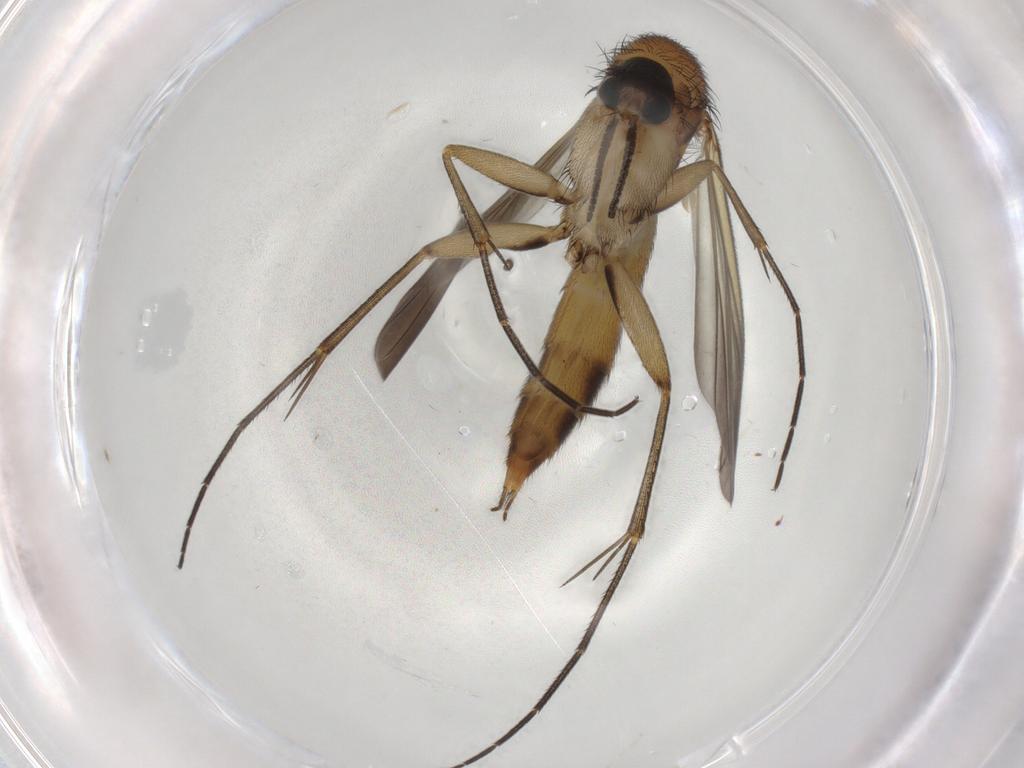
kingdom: Animalia
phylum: Arthropoda
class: Insecta
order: Diptera
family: Mycetophilidae
